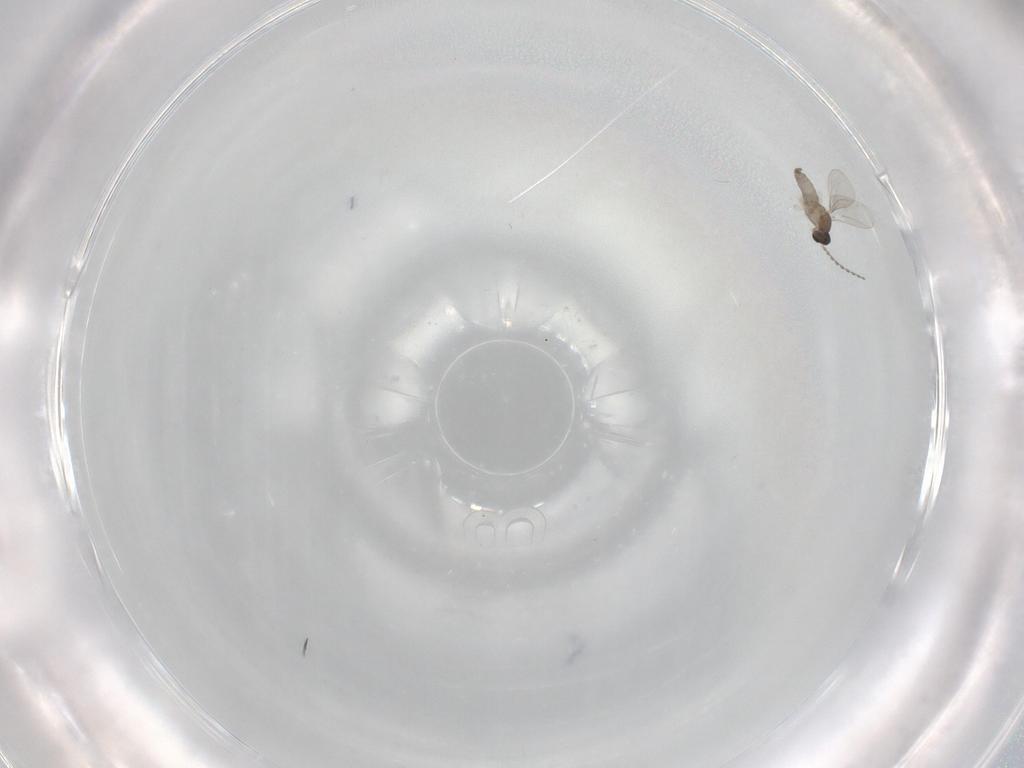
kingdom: Animalia
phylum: Arthropoda
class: Insecta
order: Diptera
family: Cecidomyiidae
